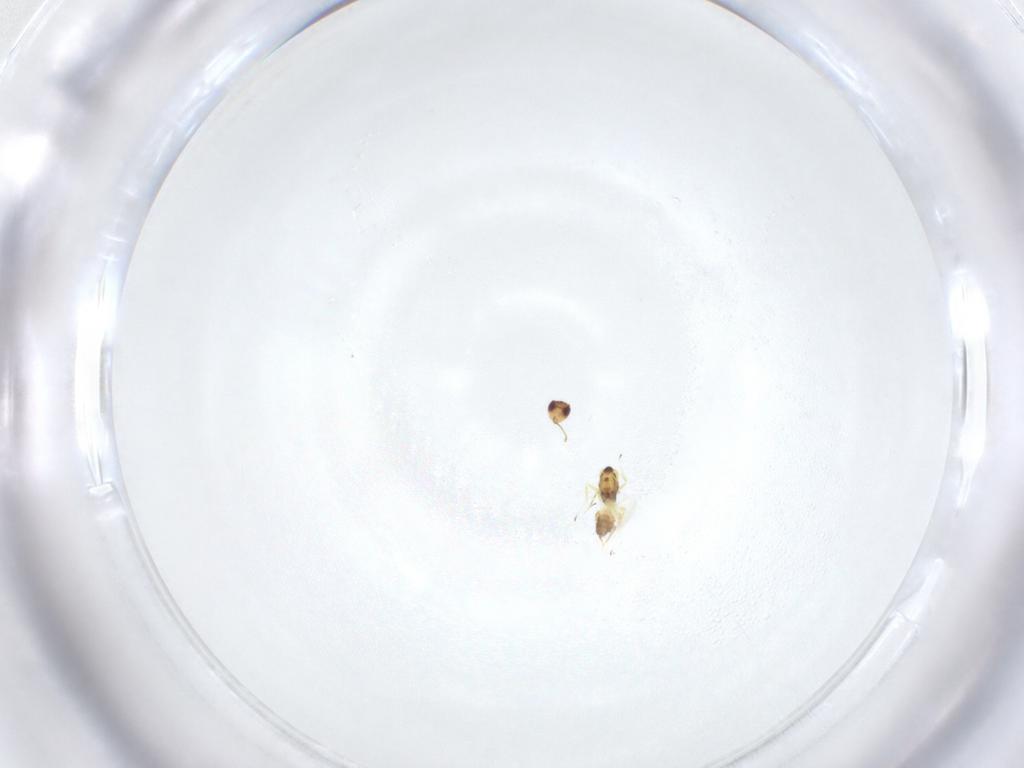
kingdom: Animalia
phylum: Arthropoda
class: Insecta
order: Hymenoptera
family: Mymaridae
